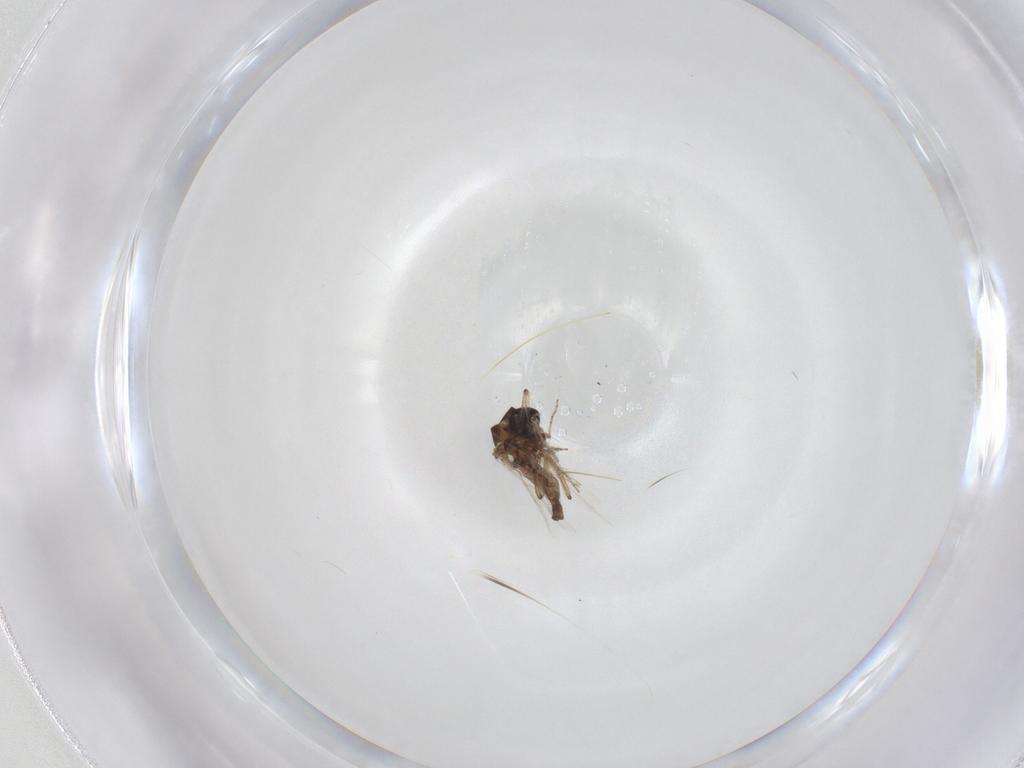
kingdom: Animalia
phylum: Arthropoda
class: Insecta
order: Diptera
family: Ceratopogonidae
